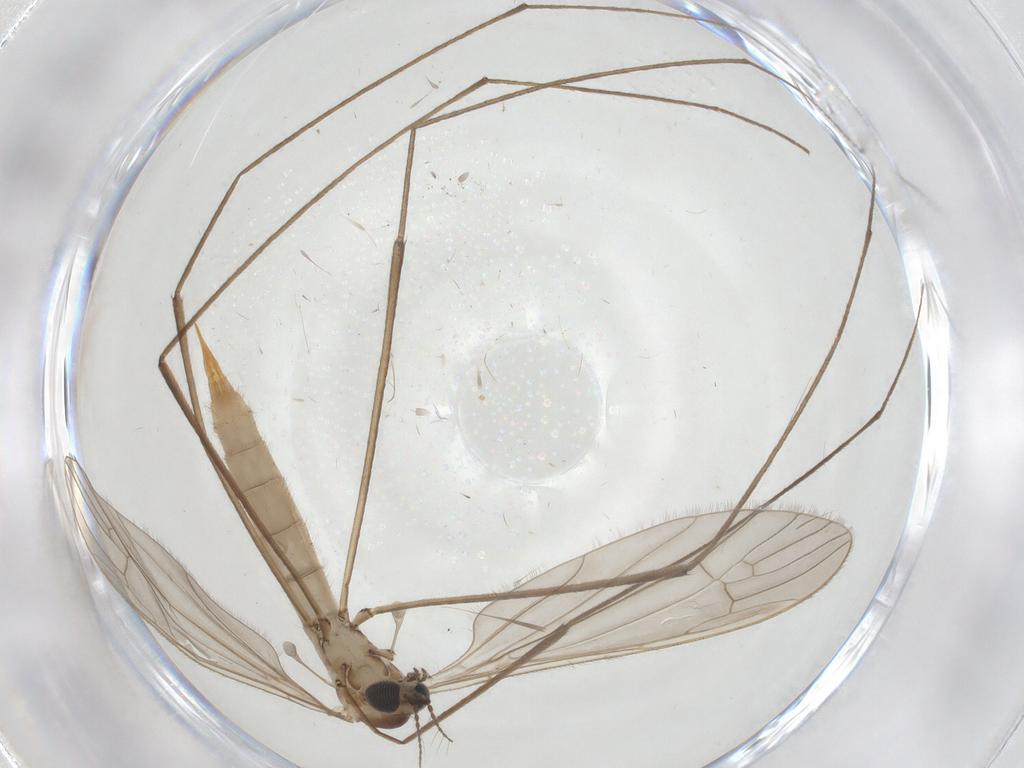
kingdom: Animalia
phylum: Arthropoda
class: Insecta
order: Diptera
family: Limoniidae
